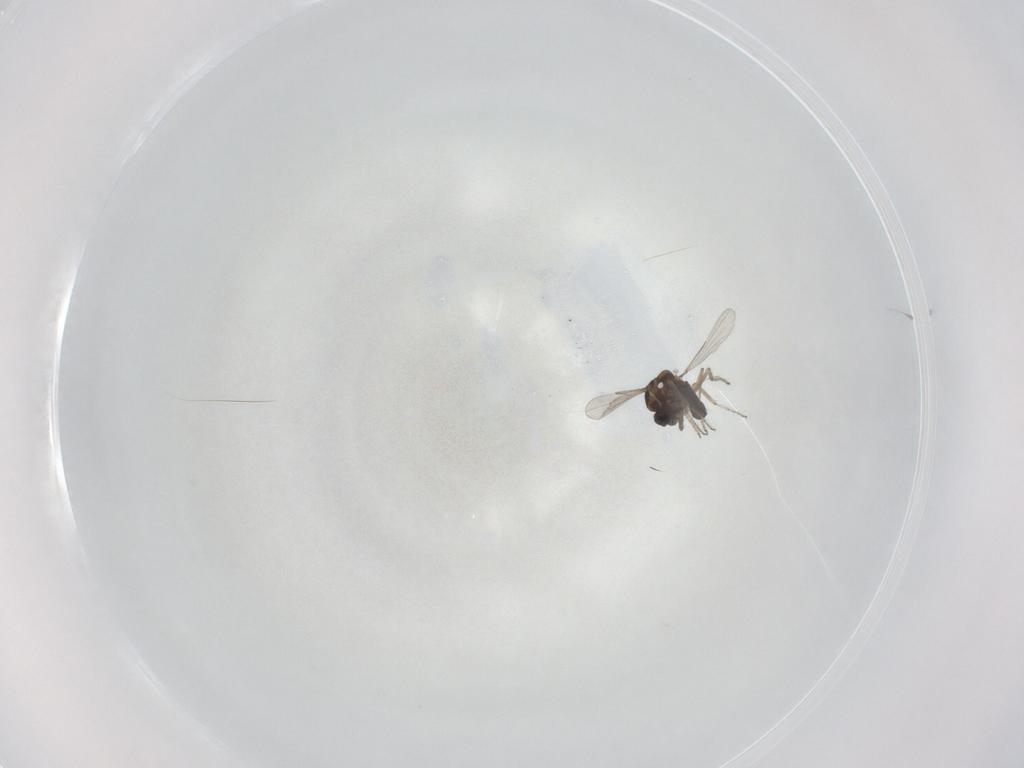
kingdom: Animalia
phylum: Arthropoda
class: Insecta
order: Diptera
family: Ceratopogonidae
